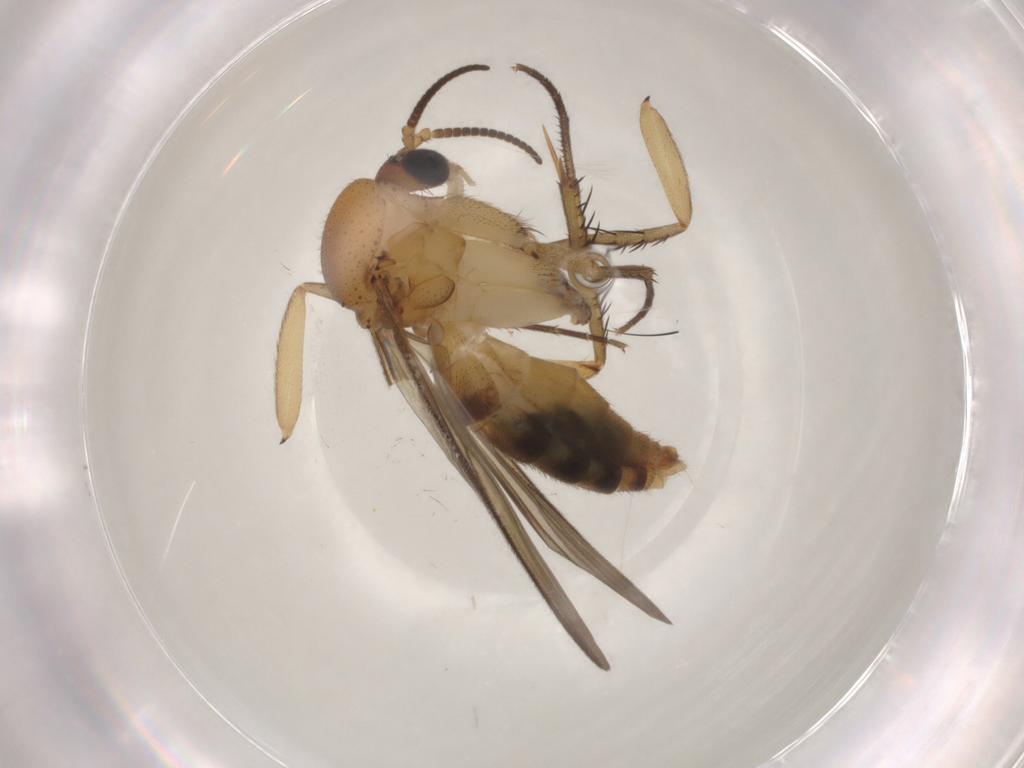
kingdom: Animalia
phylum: Arthropoda
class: Insecta
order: Diptera
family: Mycetophilidae
